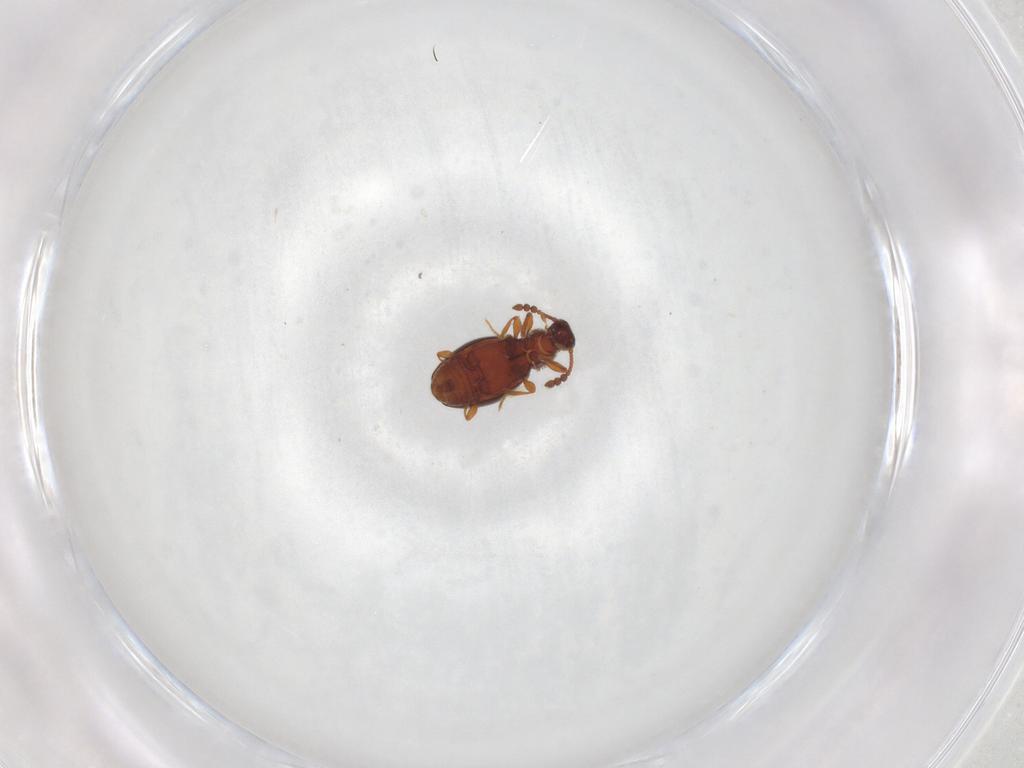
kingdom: Animalia
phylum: Arthropoda
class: Insecta
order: Coleoptera
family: Staphylinidae
